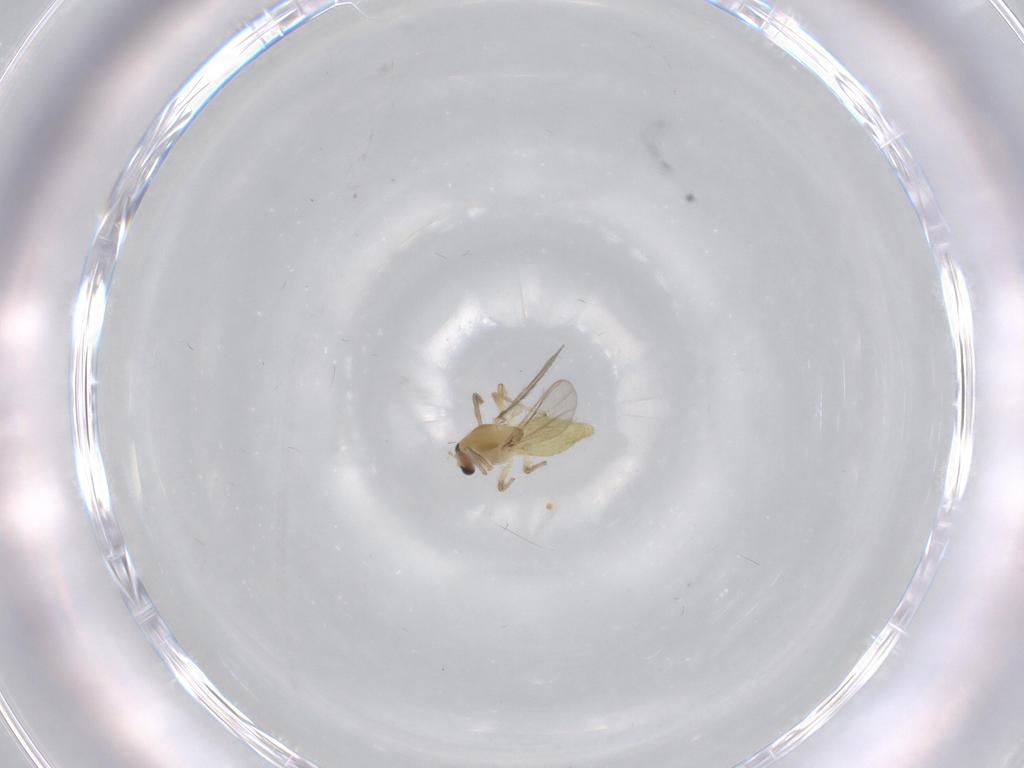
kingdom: Animalia
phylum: Arthropoda
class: Insecta
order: Diptera
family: Chironomidae
